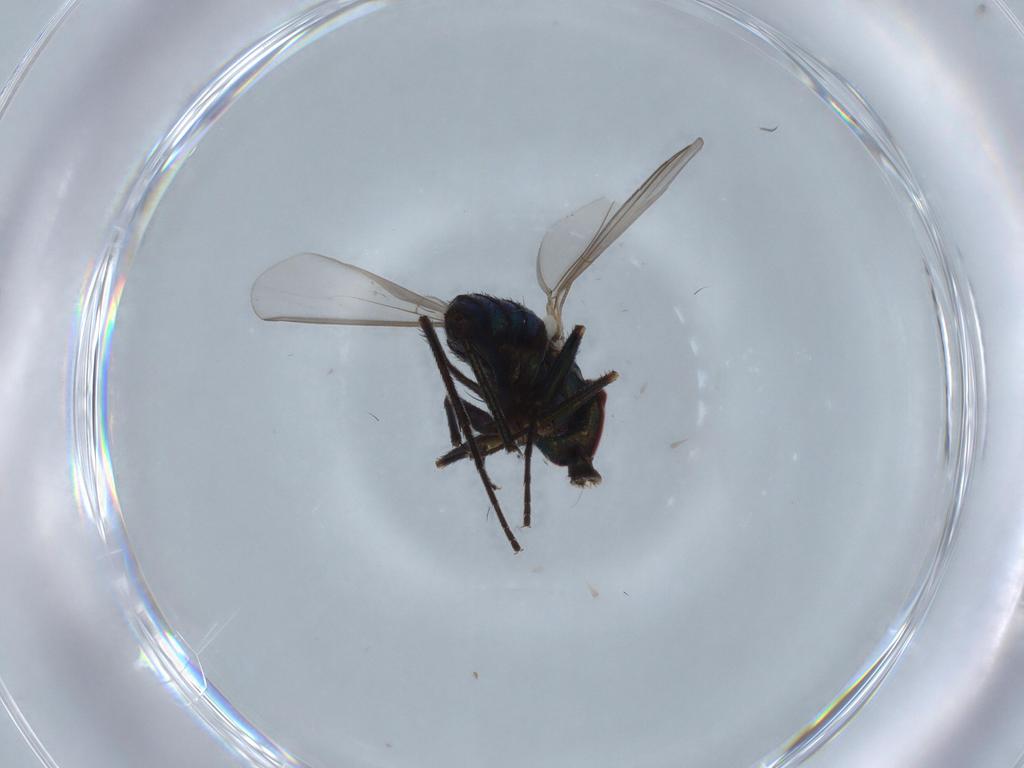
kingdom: Animalia
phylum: Arthropoda
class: Insecta
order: Diptera
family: Dolichopodidae
